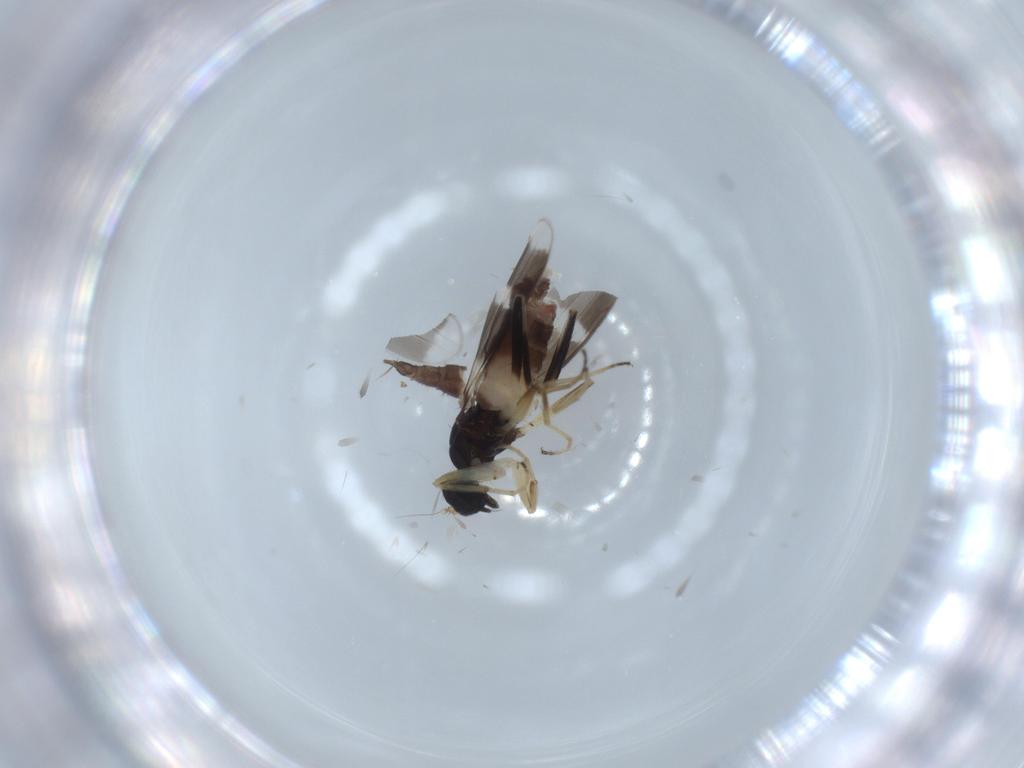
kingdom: Animalia
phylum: Arthropoda
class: Insecta
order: Diptera
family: Hybotidae
